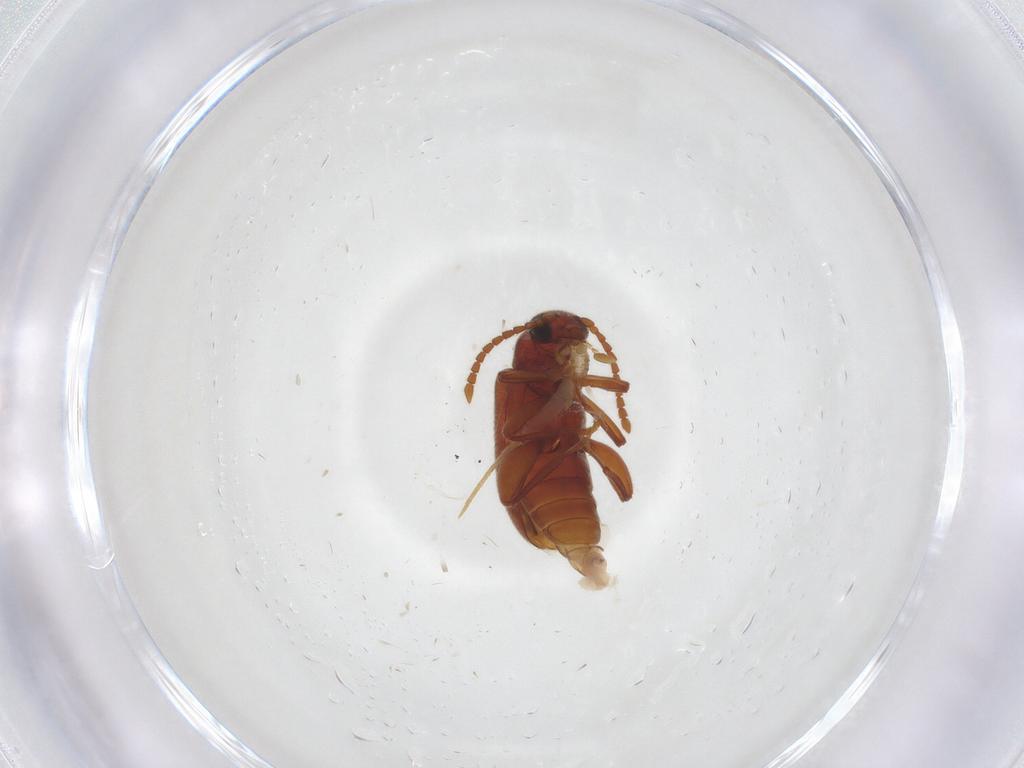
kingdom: Animalia
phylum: Arthropoda
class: Insecta
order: Coleoptera
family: Aderidae
